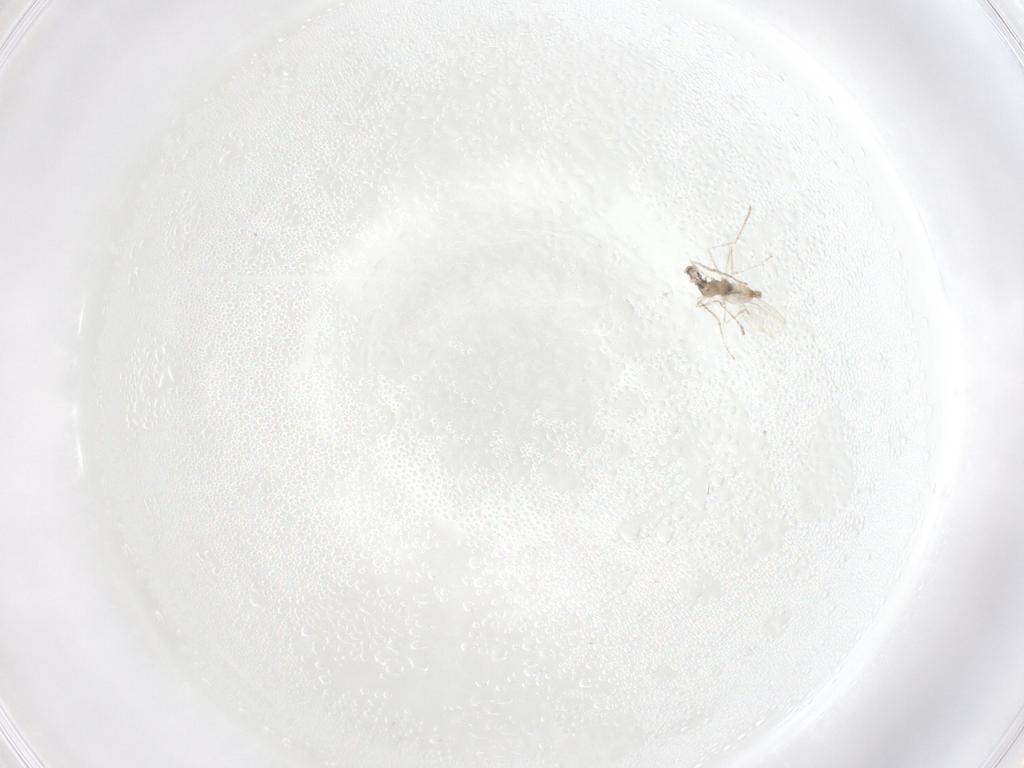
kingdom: Animalia
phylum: Arthropoda
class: Insecta
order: Diptera
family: Cecidomyiidae
